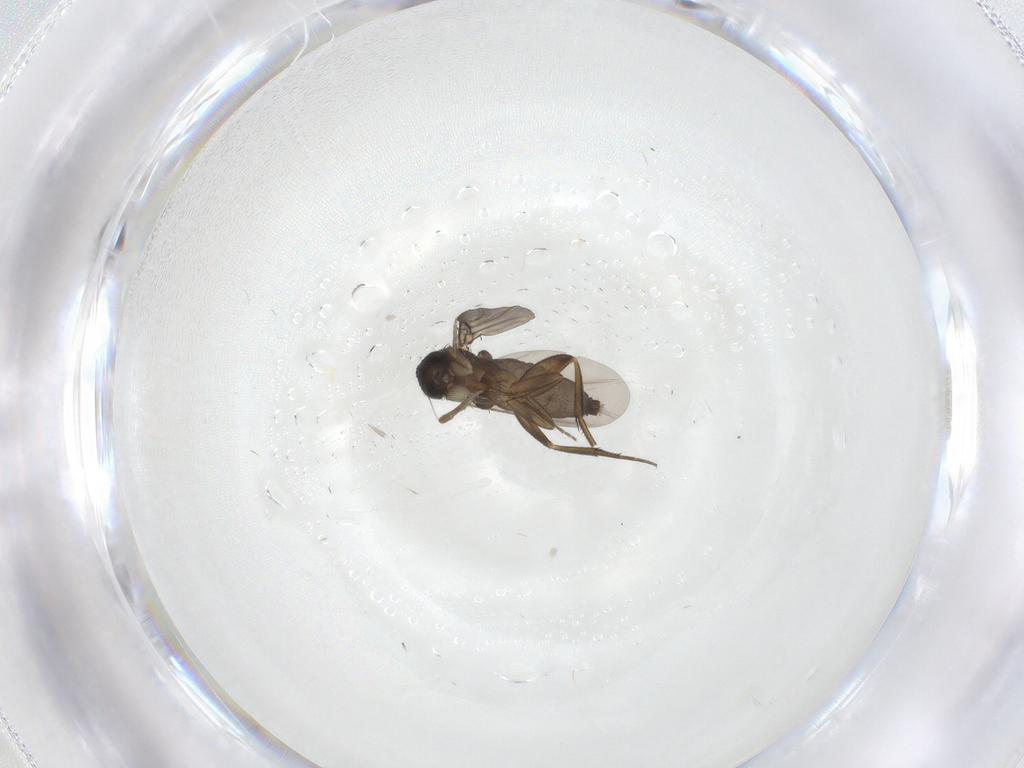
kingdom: Animalia
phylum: Arthropoda
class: Insecta
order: Diptera
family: Phoridae
